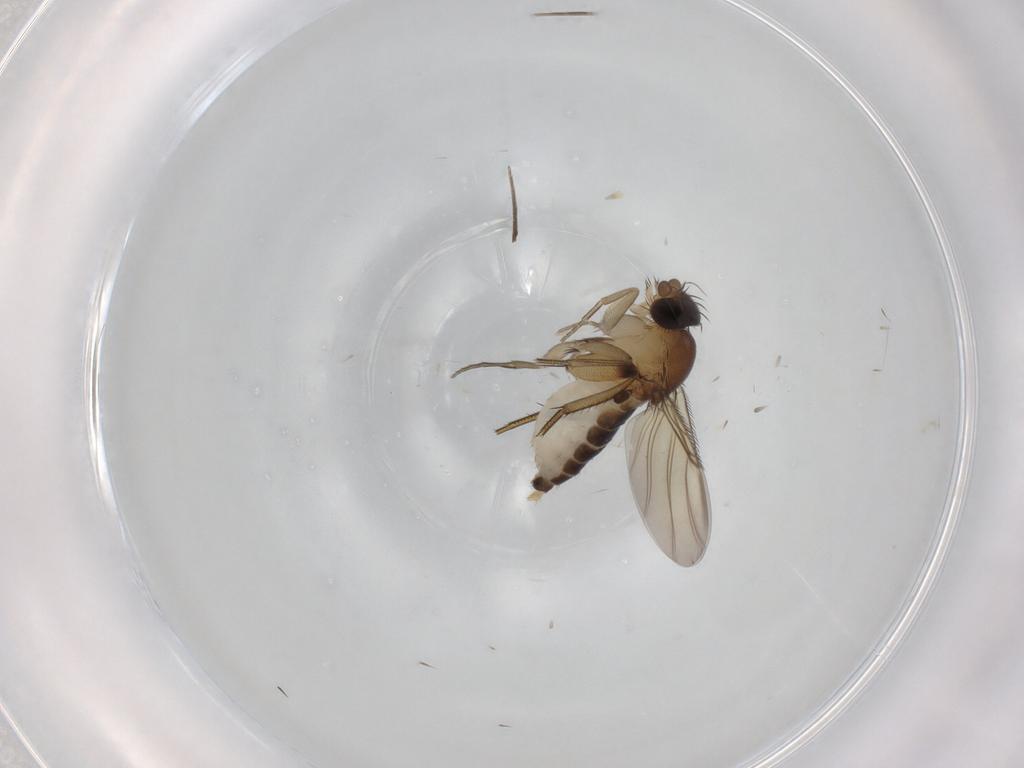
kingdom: Animalia
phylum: Arthropoda
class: Insecta
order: Diptera
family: Phoridae
